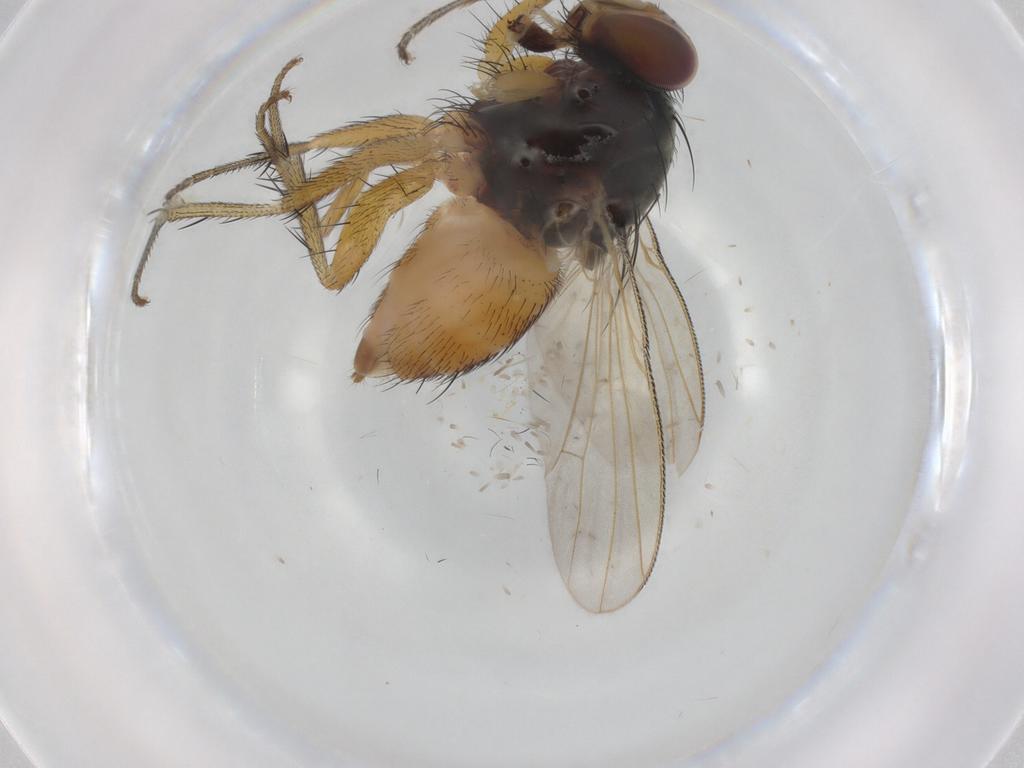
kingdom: Animalia
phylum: Arthropoda
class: Insecta
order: Diptera
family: Muscidae
